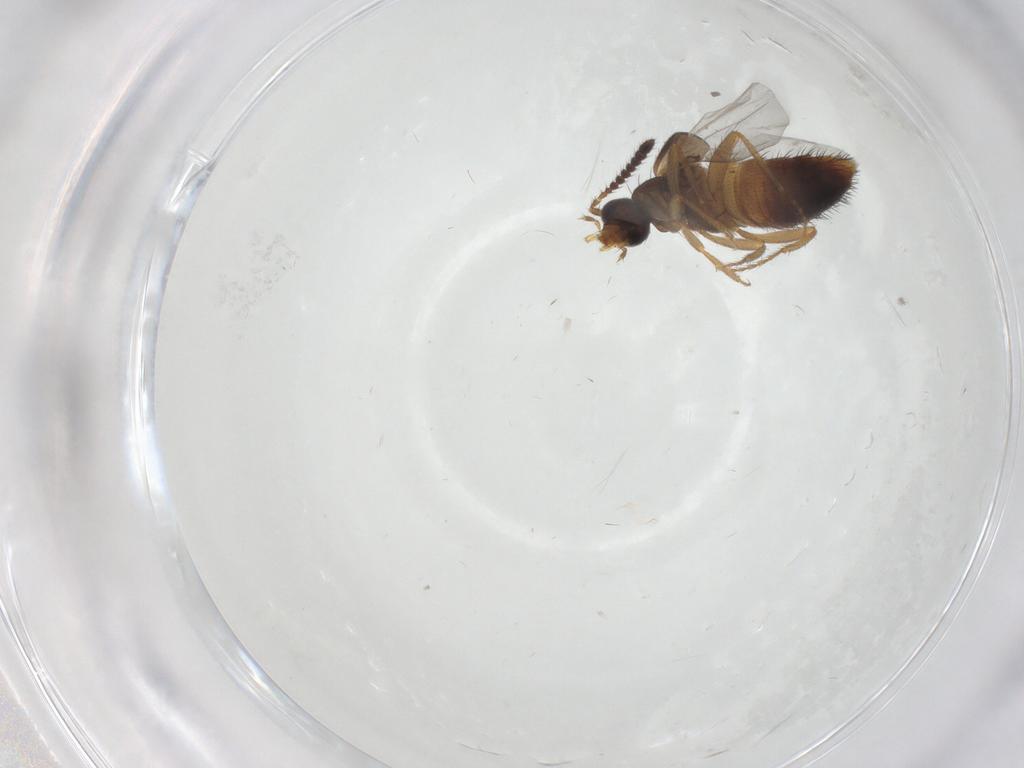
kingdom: Animalia
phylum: Arthropoda
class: Insecta
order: Coleoptera
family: Staphylinidae
